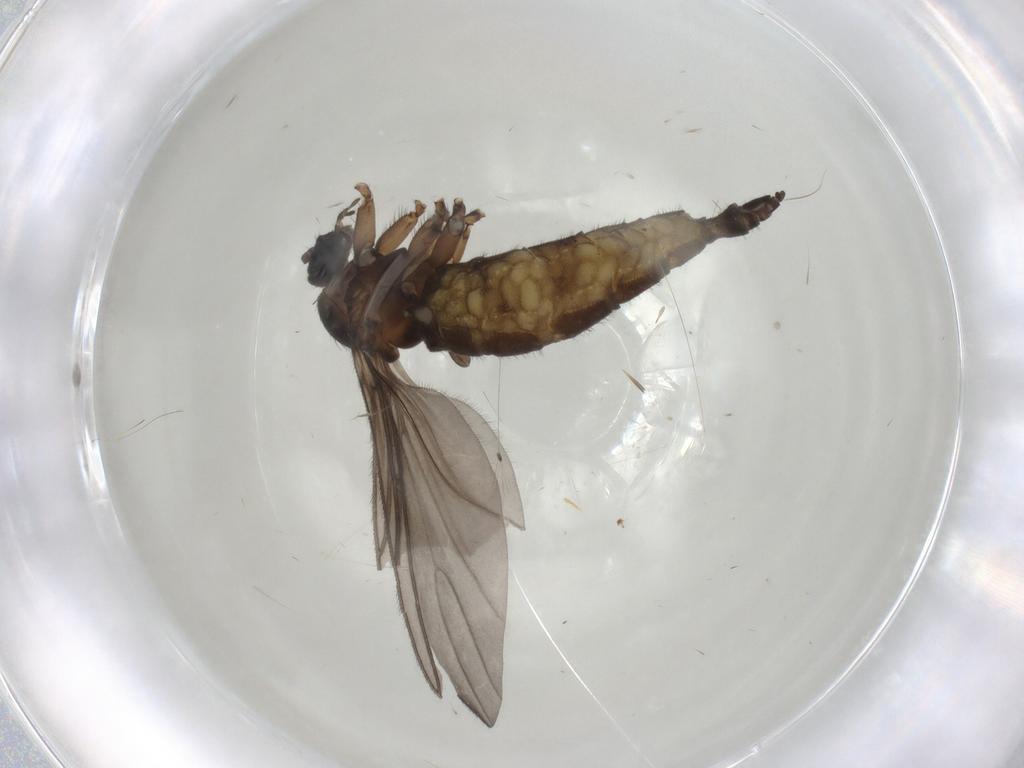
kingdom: Animalia
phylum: Arthropoda
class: Insecta
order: Diptera
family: Sciaridae
